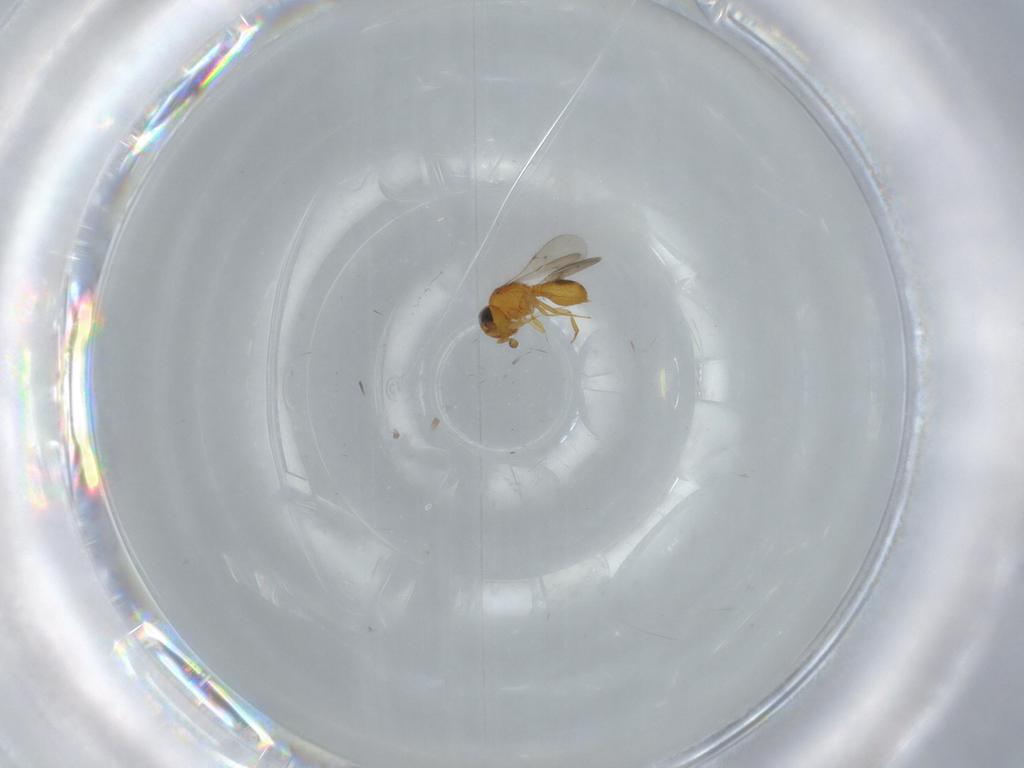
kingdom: Animalia
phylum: Arthropoda
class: Insecta
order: Hymenoptera
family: Scelionidae
